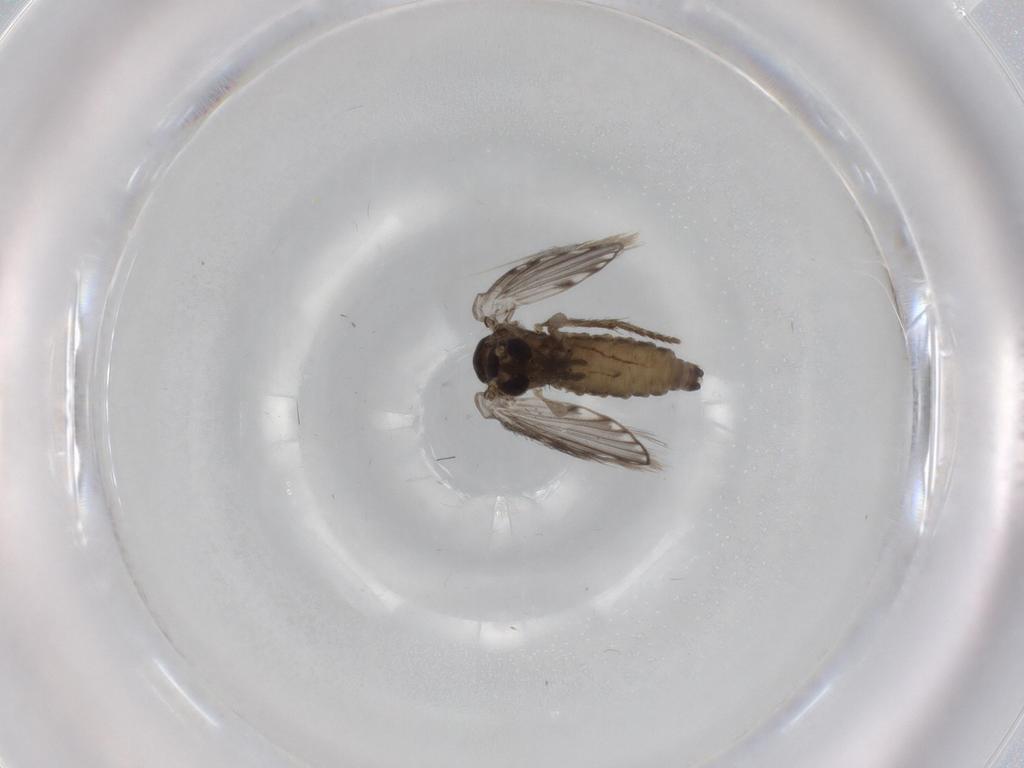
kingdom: Animalia
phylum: Arthropoda
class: Insecta
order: Diptera
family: Psychodidae
